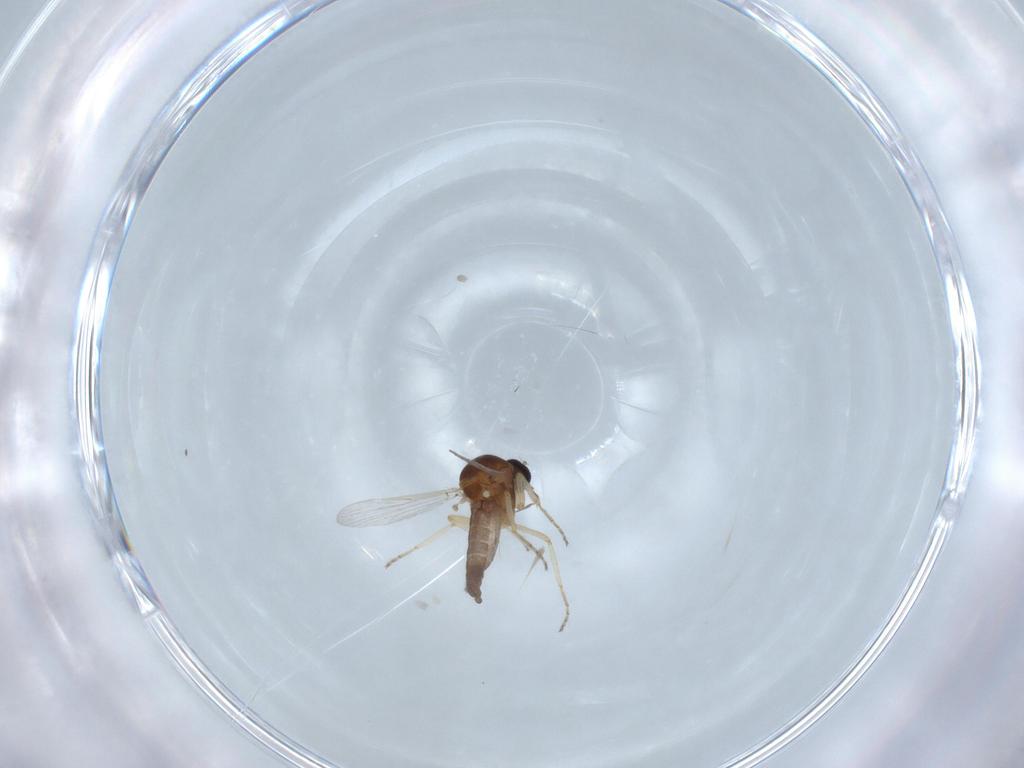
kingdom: Animalia
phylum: Arthropoda
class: Insecta
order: Diptera
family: Ceratopogonidae
